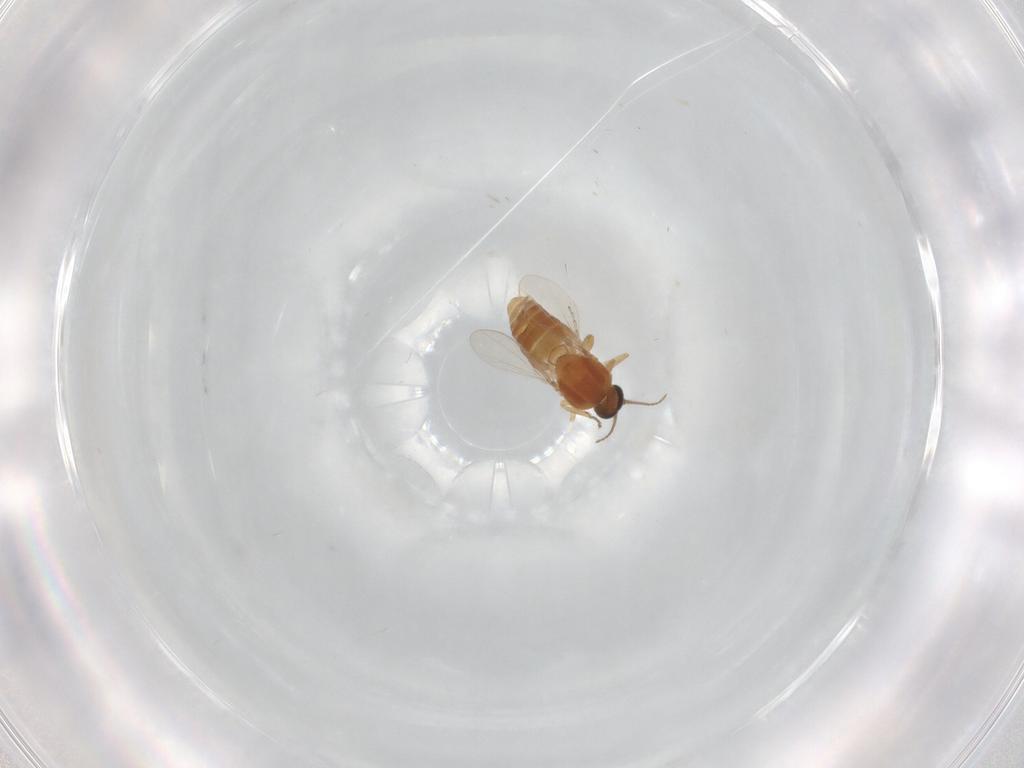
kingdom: Animalia
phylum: Arthropoda
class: Insecta
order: Diptera
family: Ceratopogonidae
